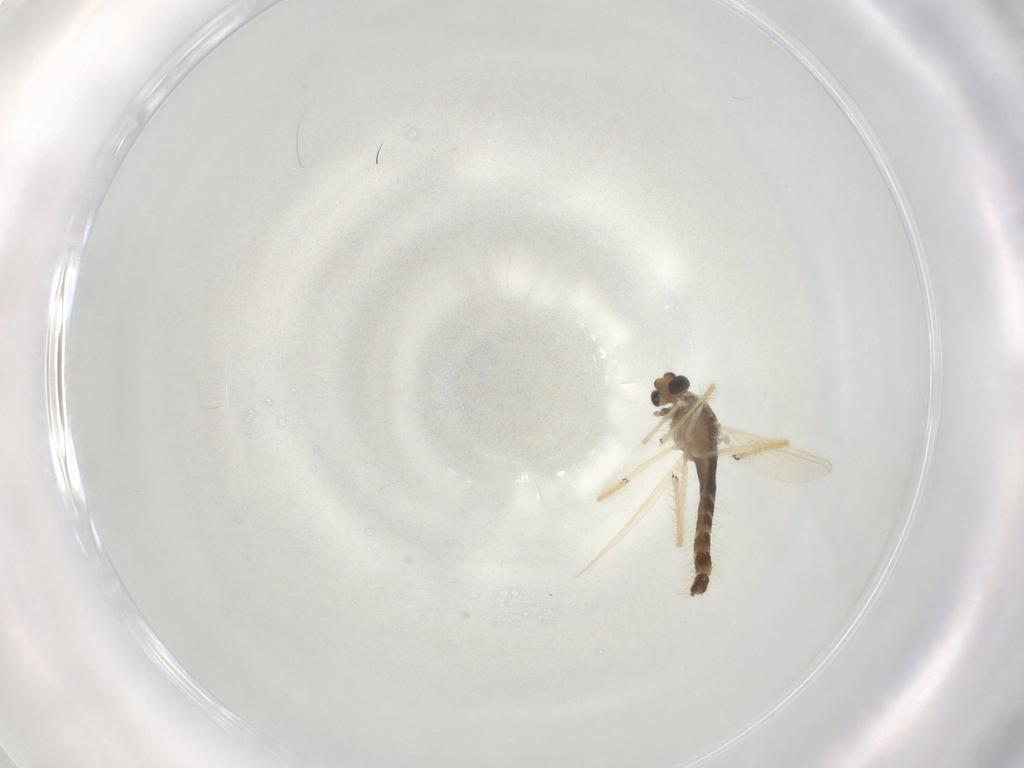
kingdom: Animalia
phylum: Arthropoda
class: Insecta
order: Diptera
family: Chironomidae
